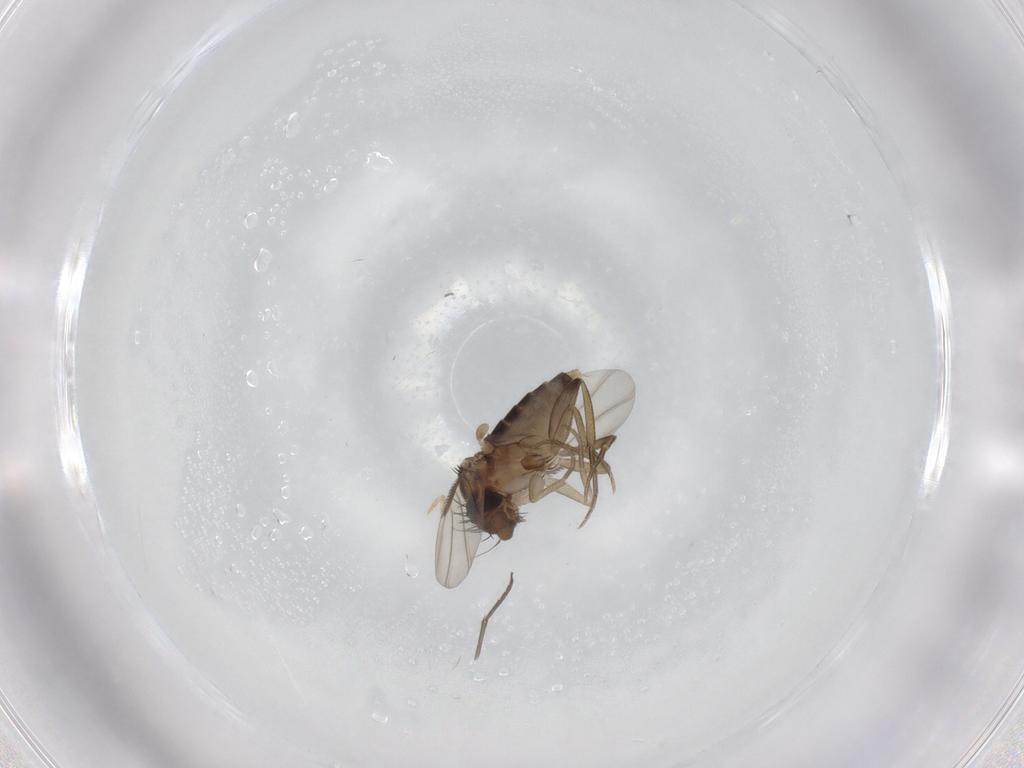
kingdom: Animalia
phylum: Arthropoda
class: Insecta
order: Diptera
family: Phoridae
